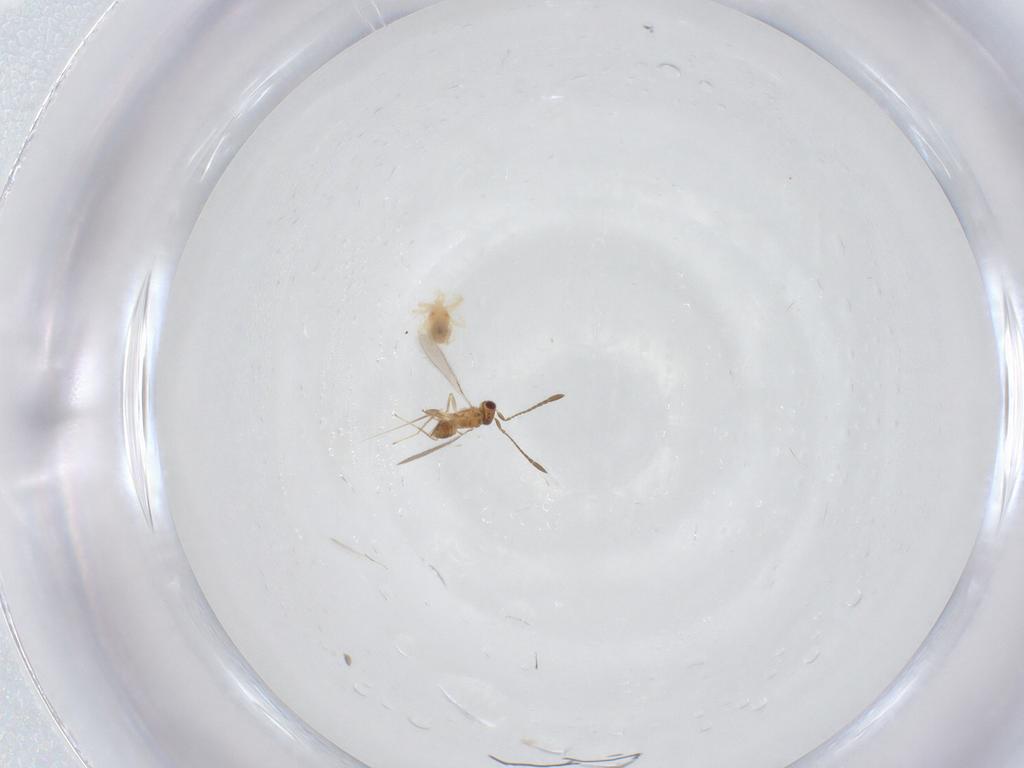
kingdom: Animalia
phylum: Arthropoda
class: Arachnida
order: Trombidiformes
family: Anystidae
